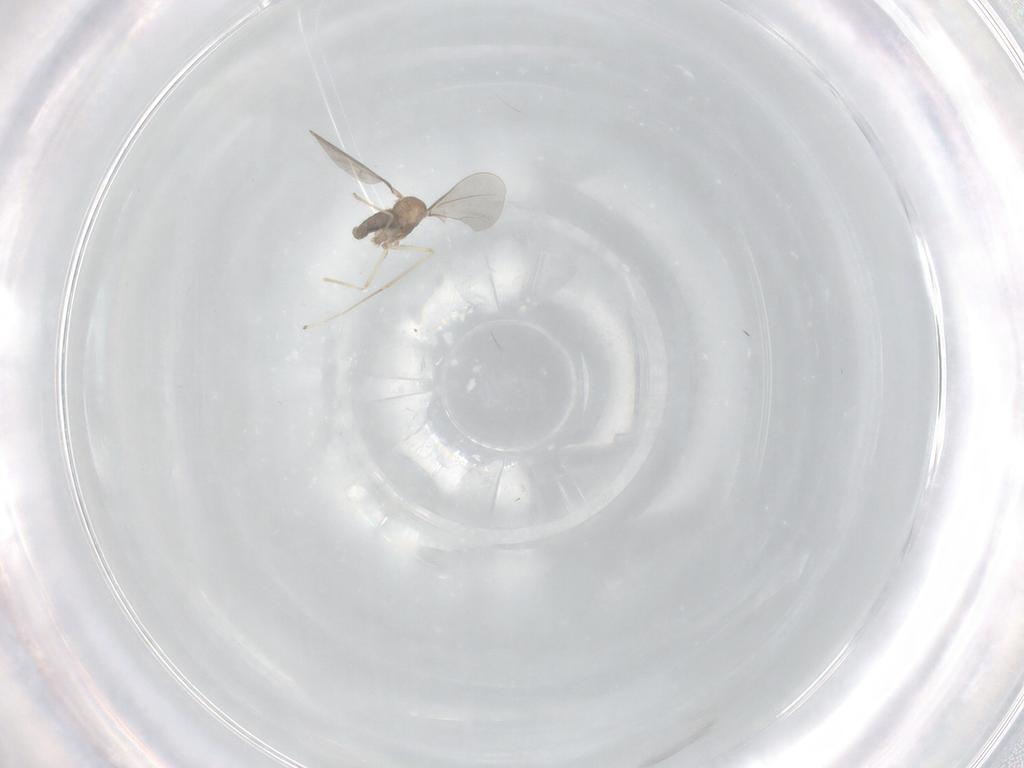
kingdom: Animalia
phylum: Arthropoda
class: Insecta
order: Diptera
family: Cecidomyiidae
